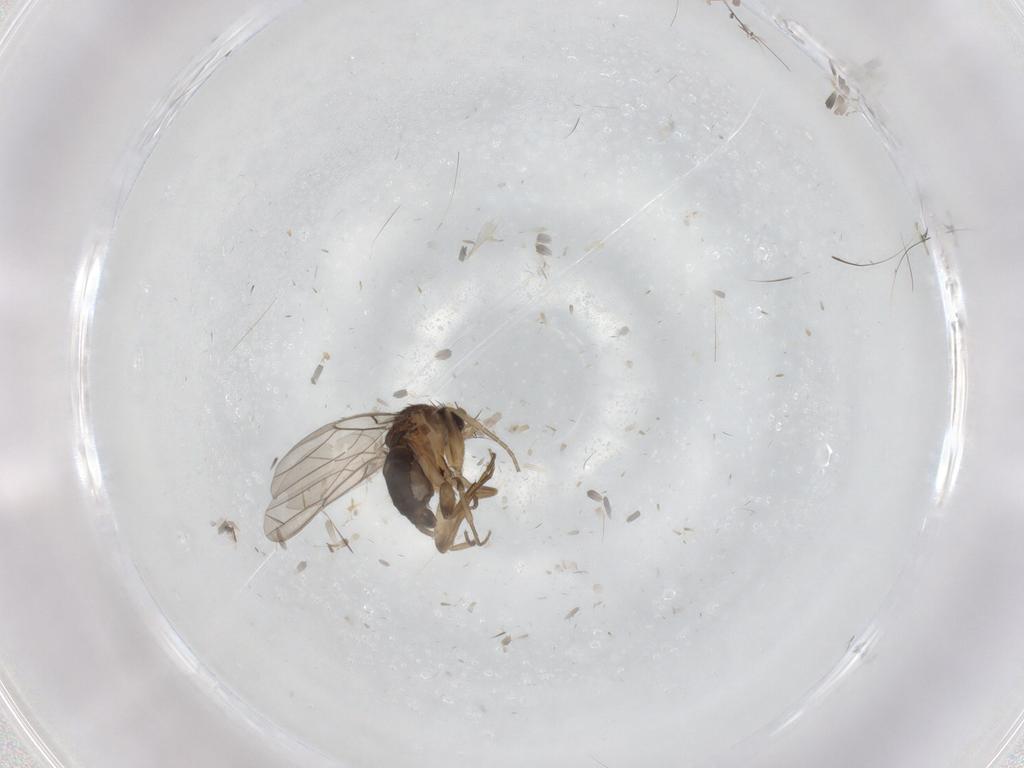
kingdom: Animalia
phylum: Arthropoda
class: Insecta
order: Diptera
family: Phoridae
